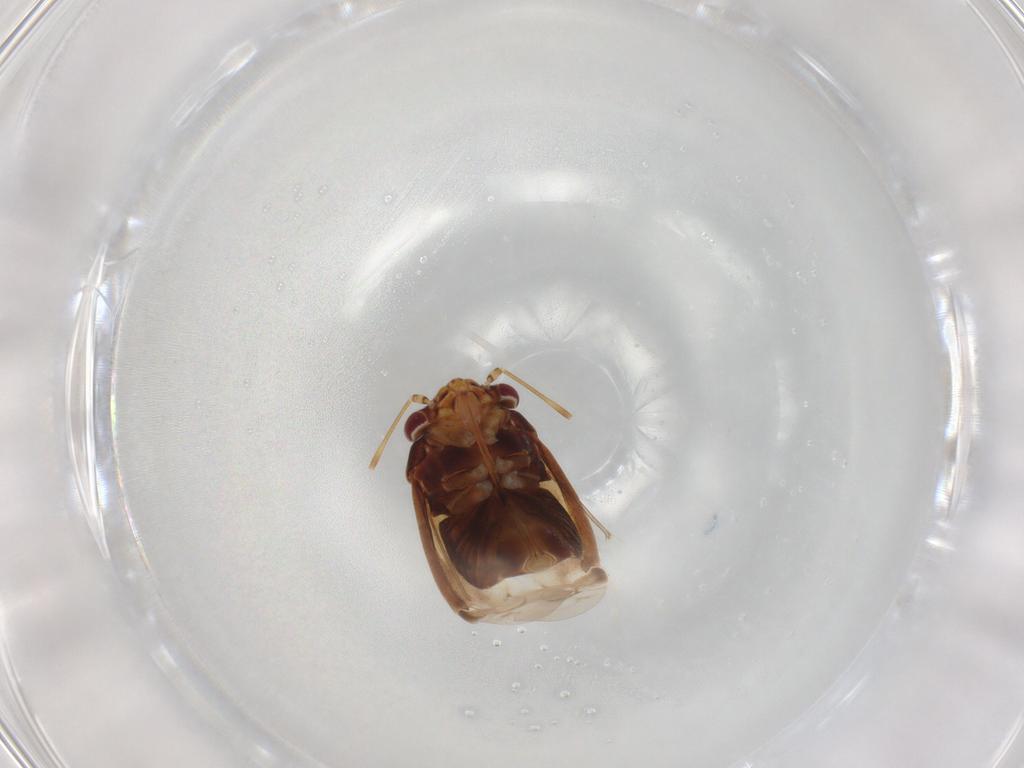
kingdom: Animalia
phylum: Arthropoda
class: Insecta
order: Hemiptera
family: Miridae
